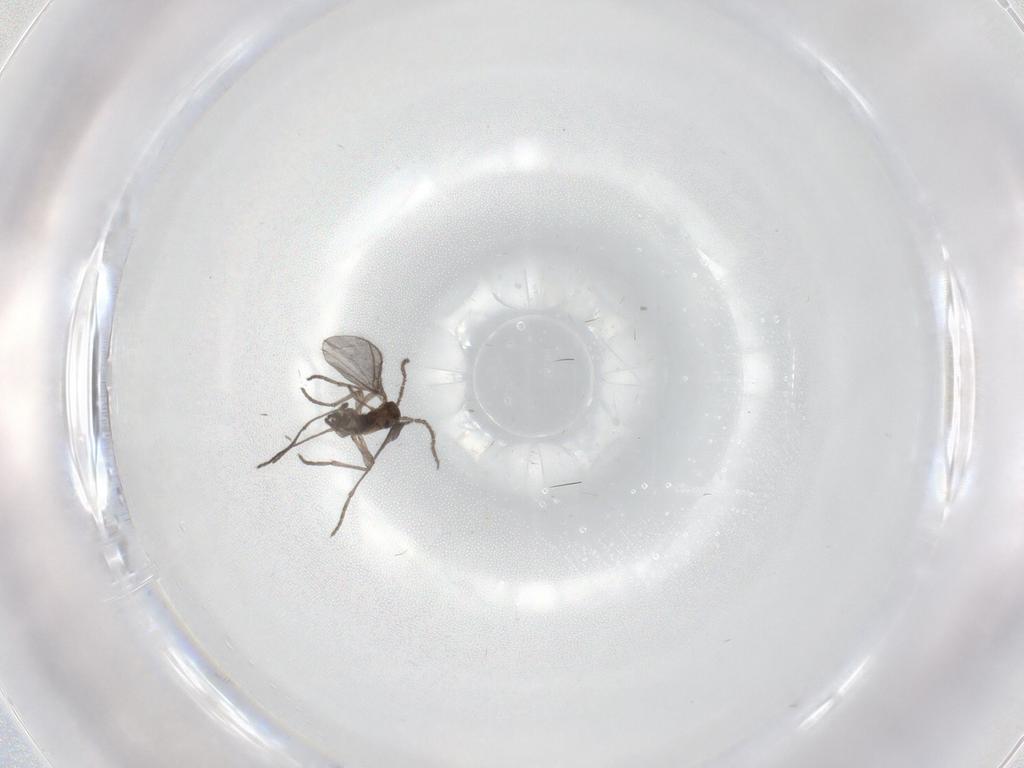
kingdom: Animalia
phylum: Arthropoda
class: Insecta
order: Diptera
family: Sciaridae
